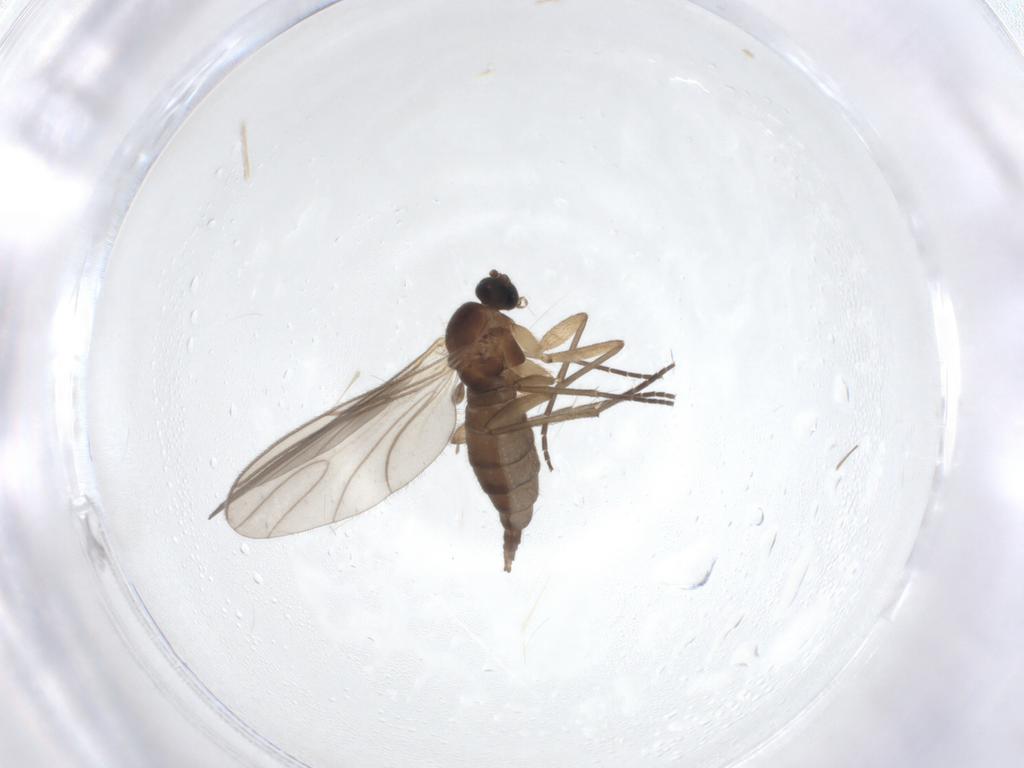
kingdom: Animalia
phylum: Arthropoda
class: Insecta
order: Diptera
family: Sciaridae
